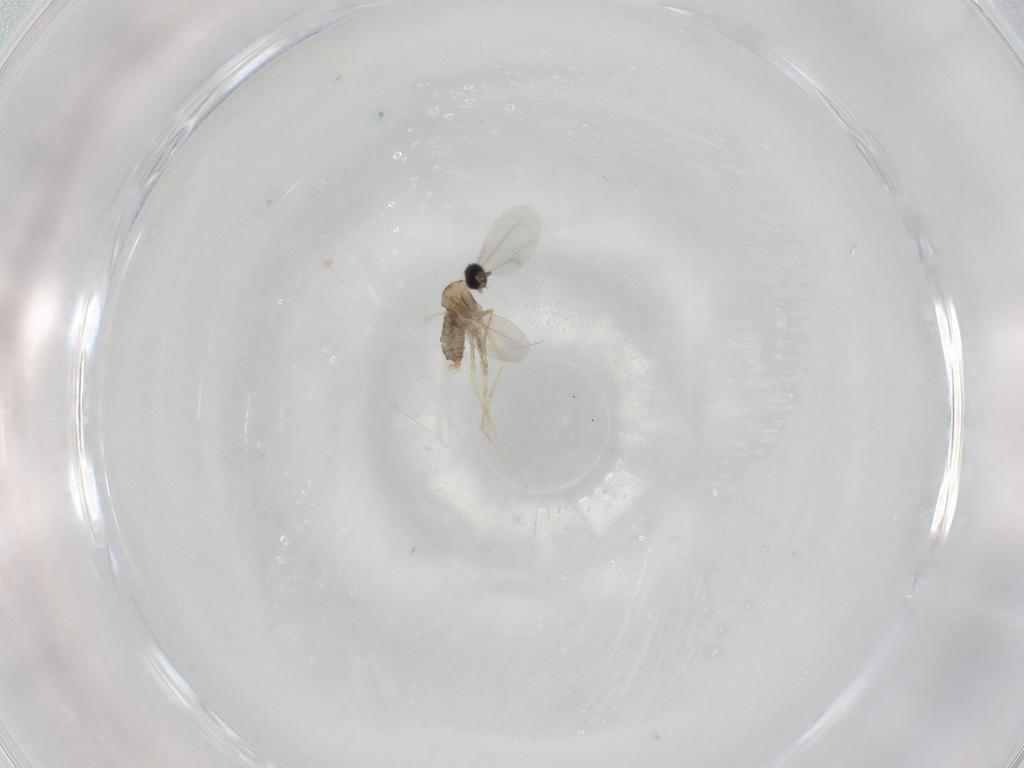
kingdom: Animalia
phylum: Arthropoda
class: Insecta
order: Diptera
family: Cecidomyiidae
